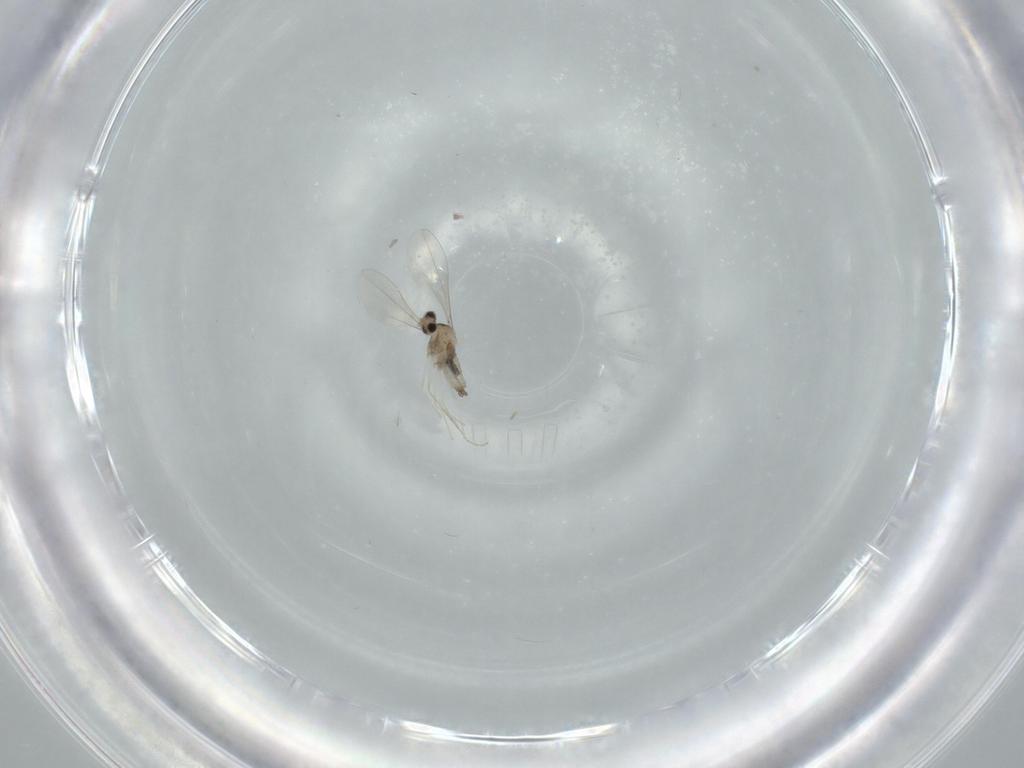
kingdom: Animalia
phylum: Arthropoda
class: Insecta
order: Diptera
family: Cecidomyiidae
